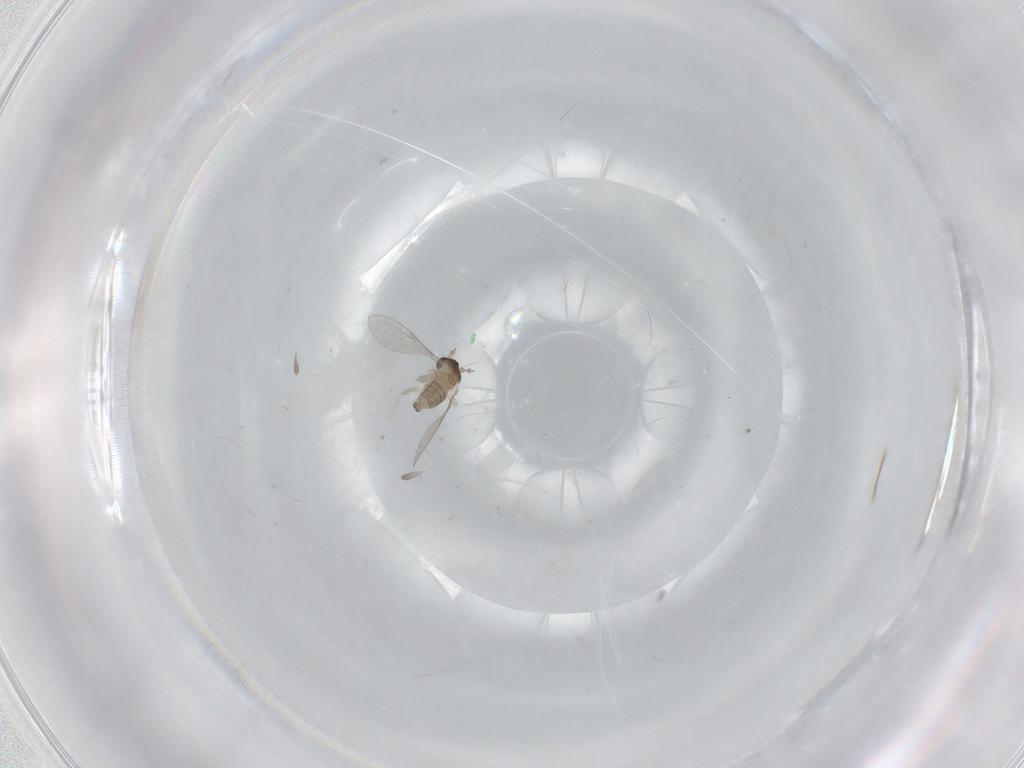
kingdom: Animalia
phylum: Arthropoda
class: Insecta
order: Diptera
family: Cecidomyiidae
